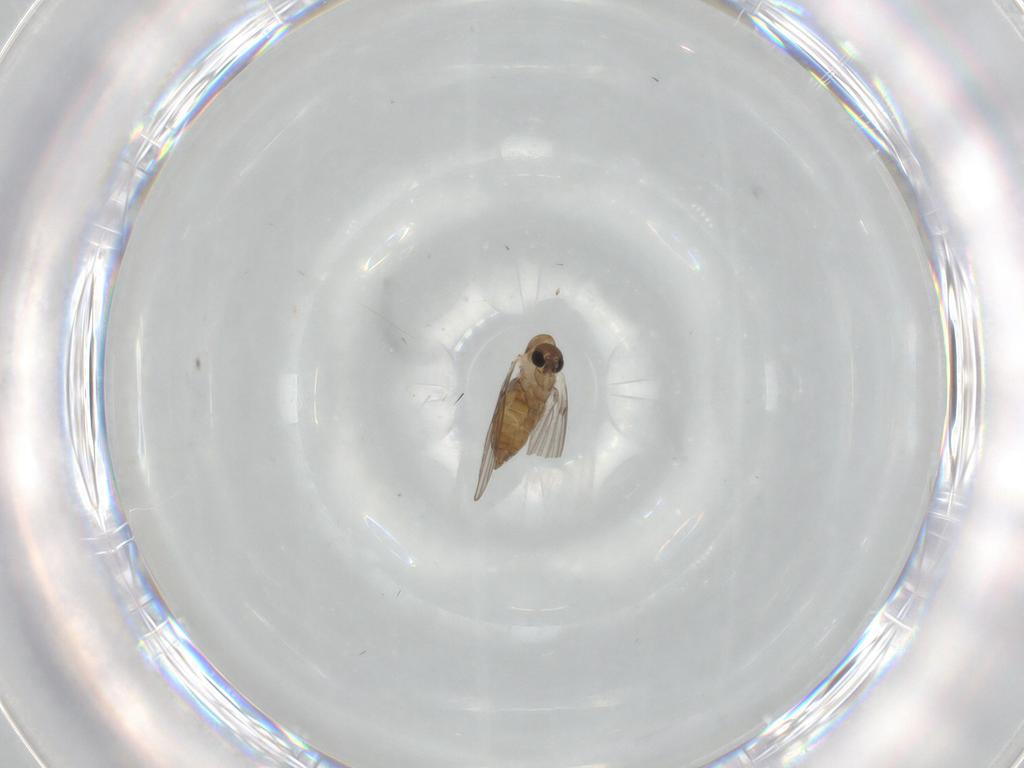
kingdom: Animalia
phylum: Arthropoda
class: Insecta
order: Diptera
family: Psychodidae
